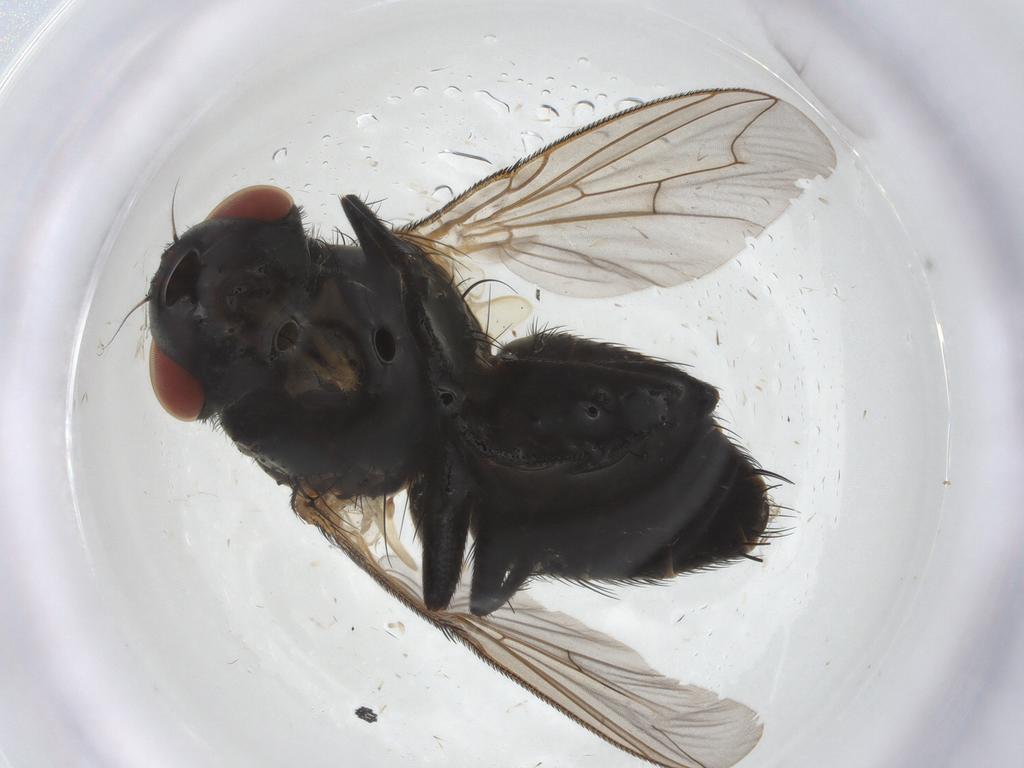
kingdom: Animalia
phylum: Arthropoda
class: Insecta
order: Diptera
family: Sarcophagidae
